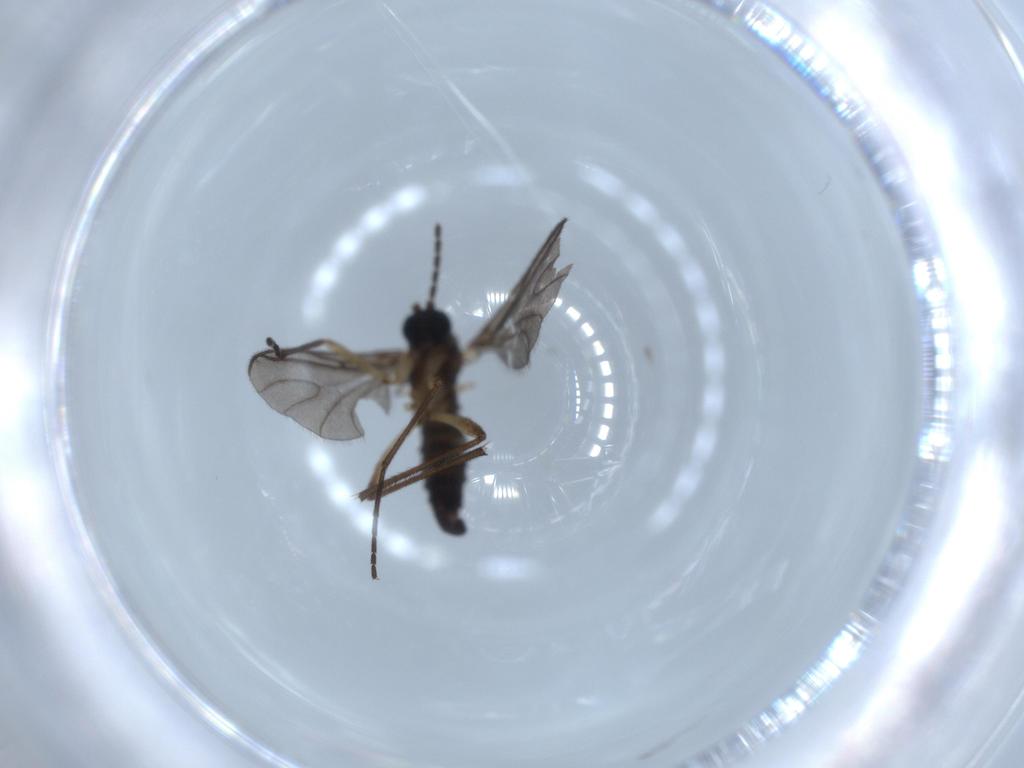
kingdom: Animalia
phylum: Arthropoda
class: Insecta
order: Diptera
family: Sciaridae
